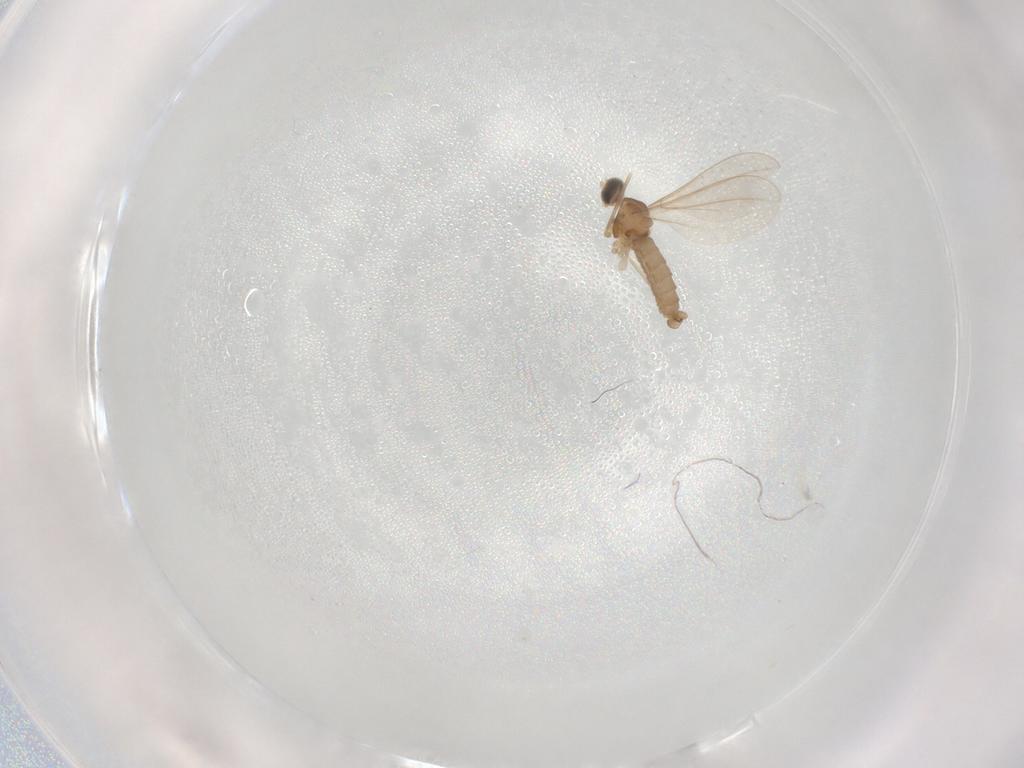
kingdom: Animalia
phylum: Arthropoda
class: Insecta
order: Diptera
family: Cecidomyiidae
